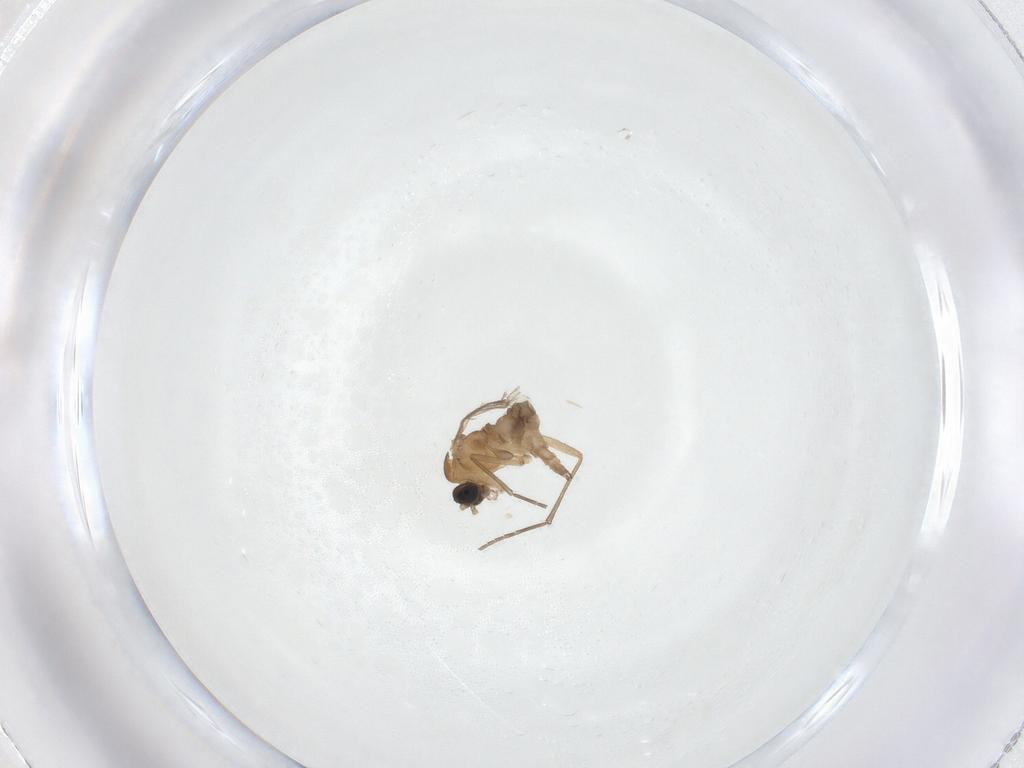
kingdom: Animalia
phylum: Arthropoda
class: Insecta
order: Diptera
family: Sciaridae
